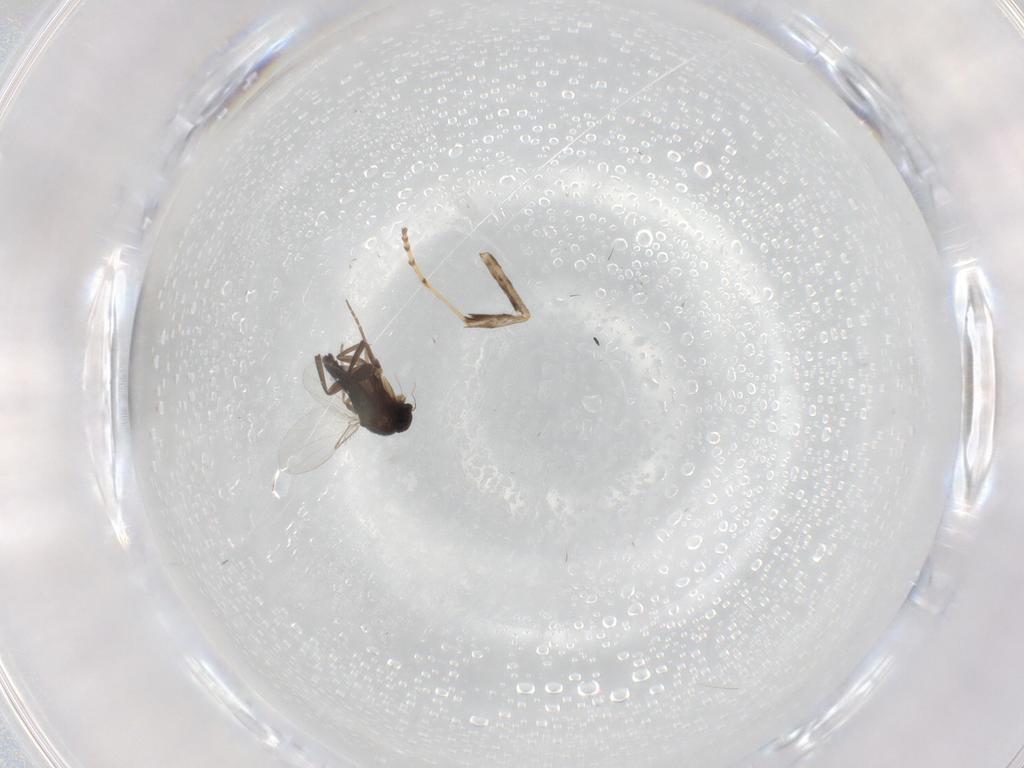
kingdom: Animalia
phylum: Arthropoda
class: Insecta
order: Diptera
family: Phoridae
